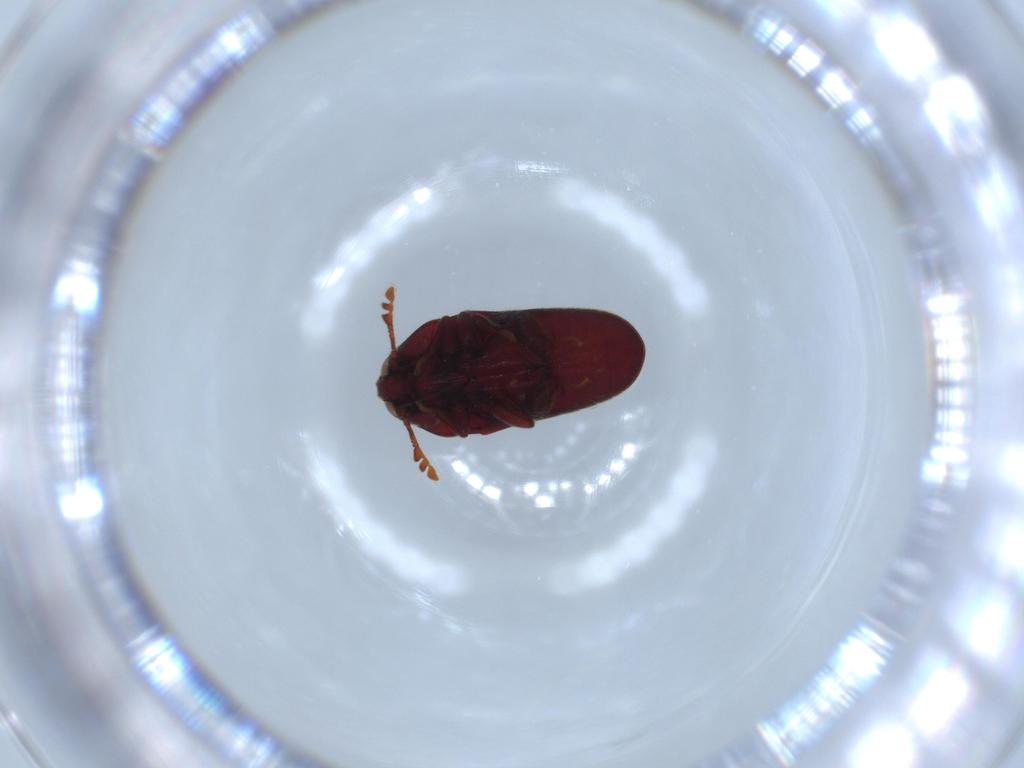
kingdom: Animalia
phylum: Arthropoda
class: Insecta
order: Coleoptera
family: Throscidae
